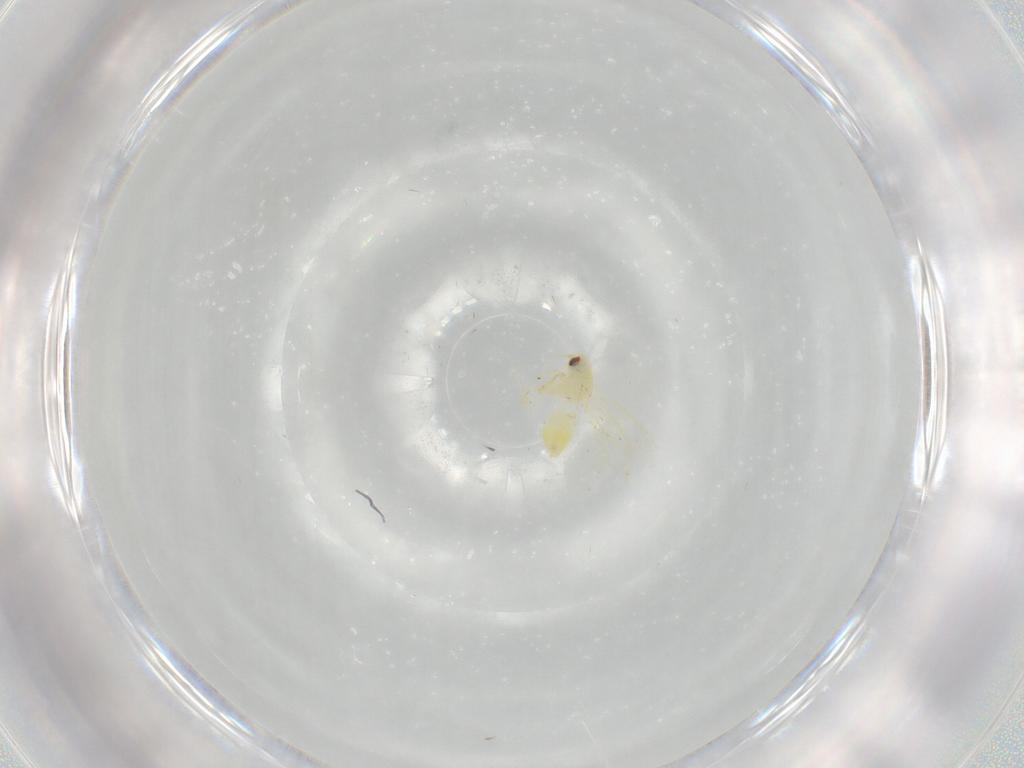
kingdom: Animalia
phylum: Arthropoda
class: Insecta
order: Hemiptera
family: Aleyrodidae
